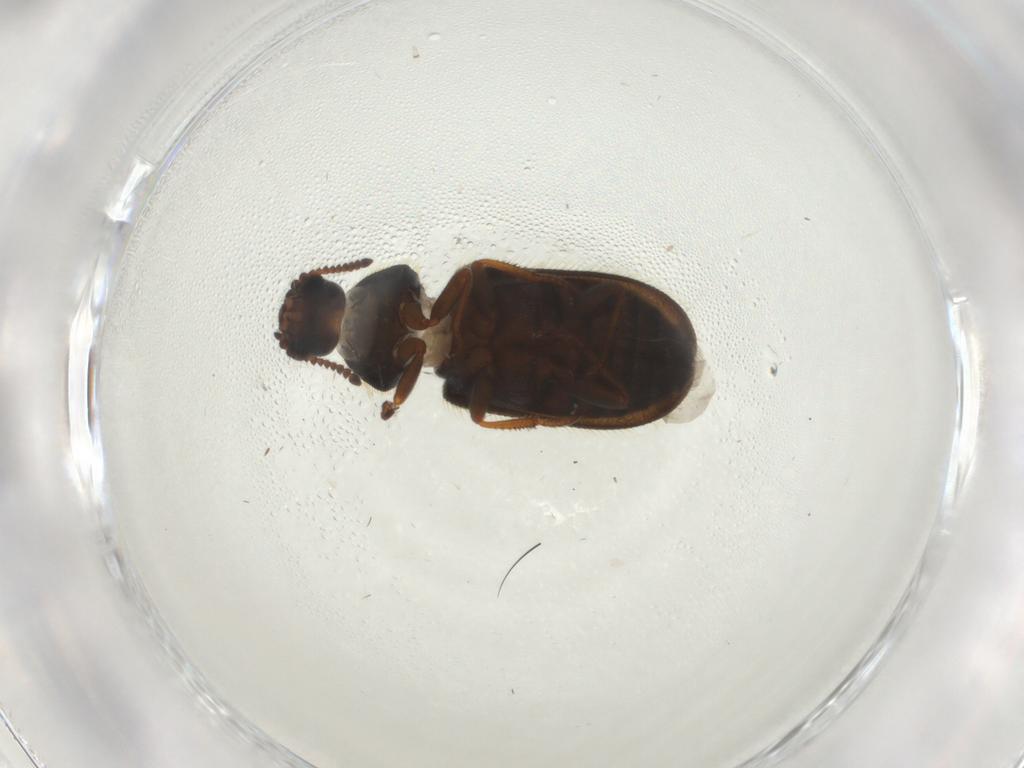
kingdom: Animalia
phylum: Arthropoda
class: Insecta
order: Coleoptera
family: Melyridae
